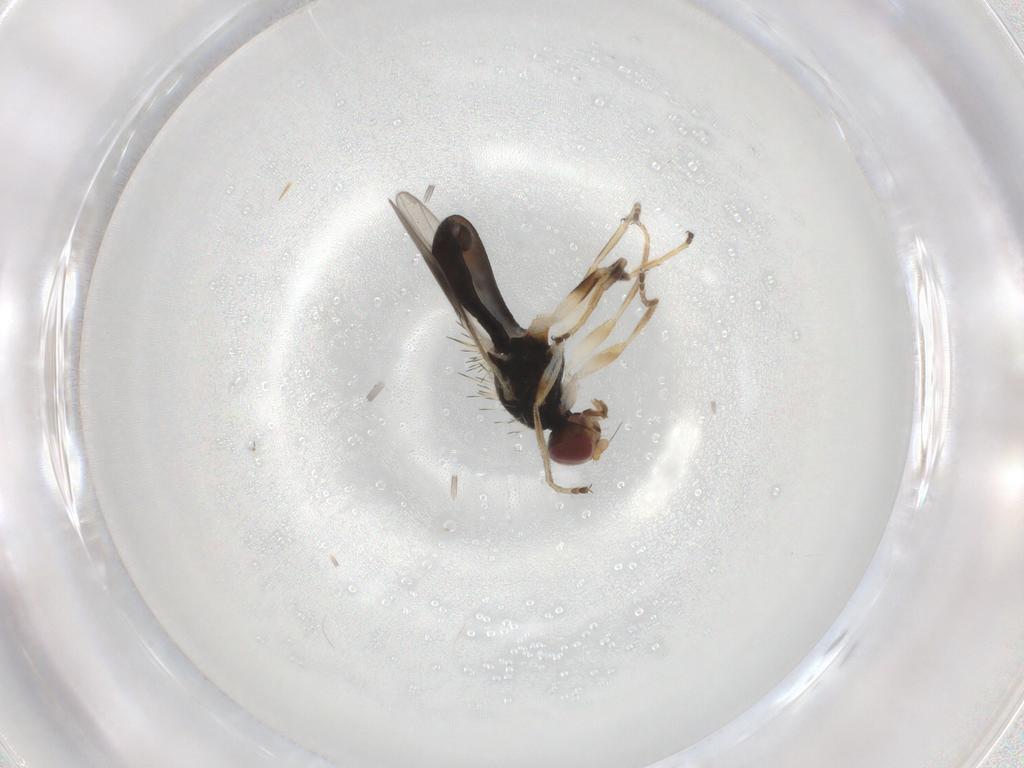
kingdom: Animalia
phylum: Arthropoda
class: Insecta
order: Diptera
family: Chloropidae
